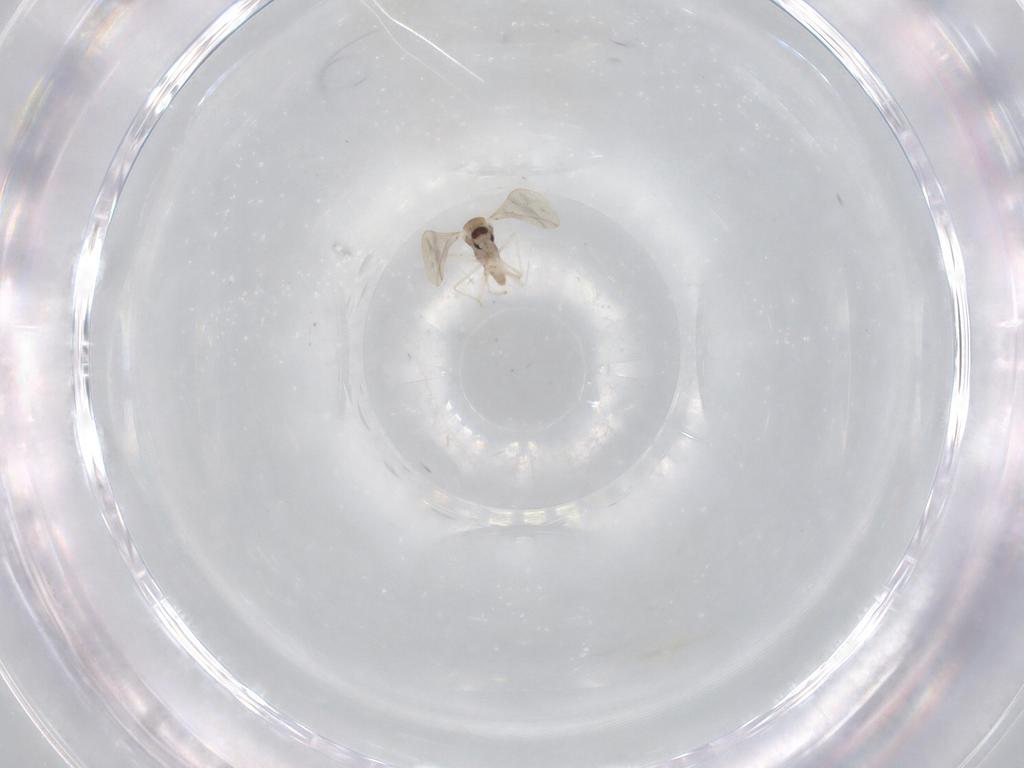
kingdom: Animalia
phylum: Arthropoda
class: Insecta
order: Diptera
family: Cecidomyiidae
